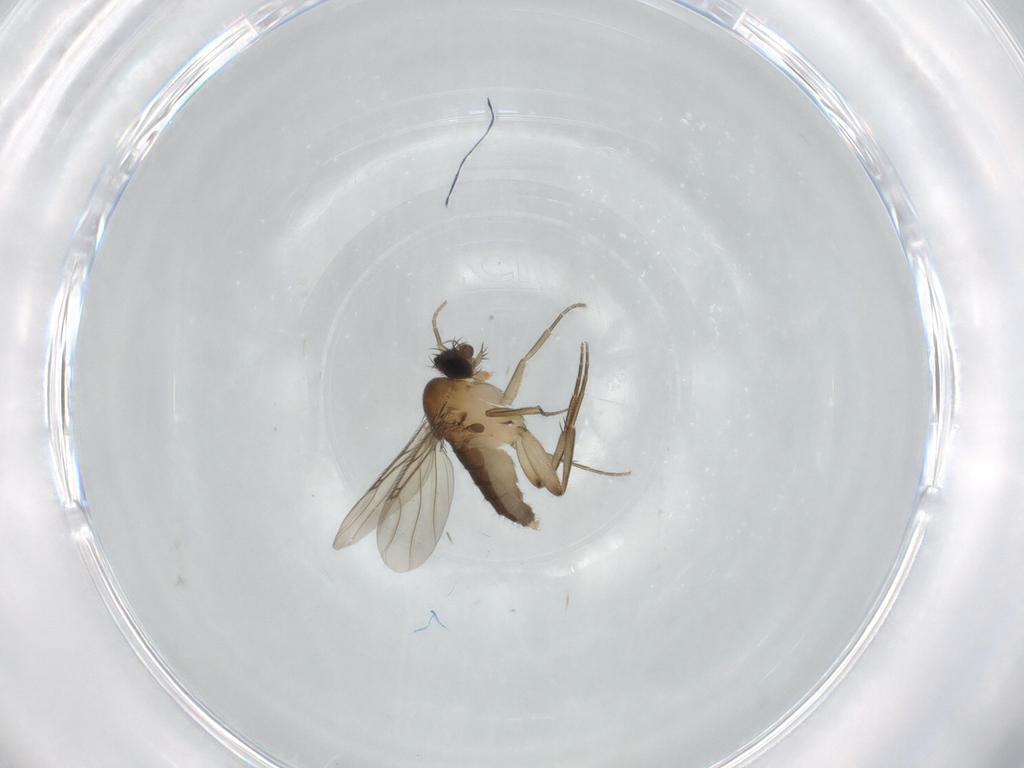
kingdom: Animalia
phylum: Arthropoda
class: Insecta
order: Diptera
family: Phoridae
